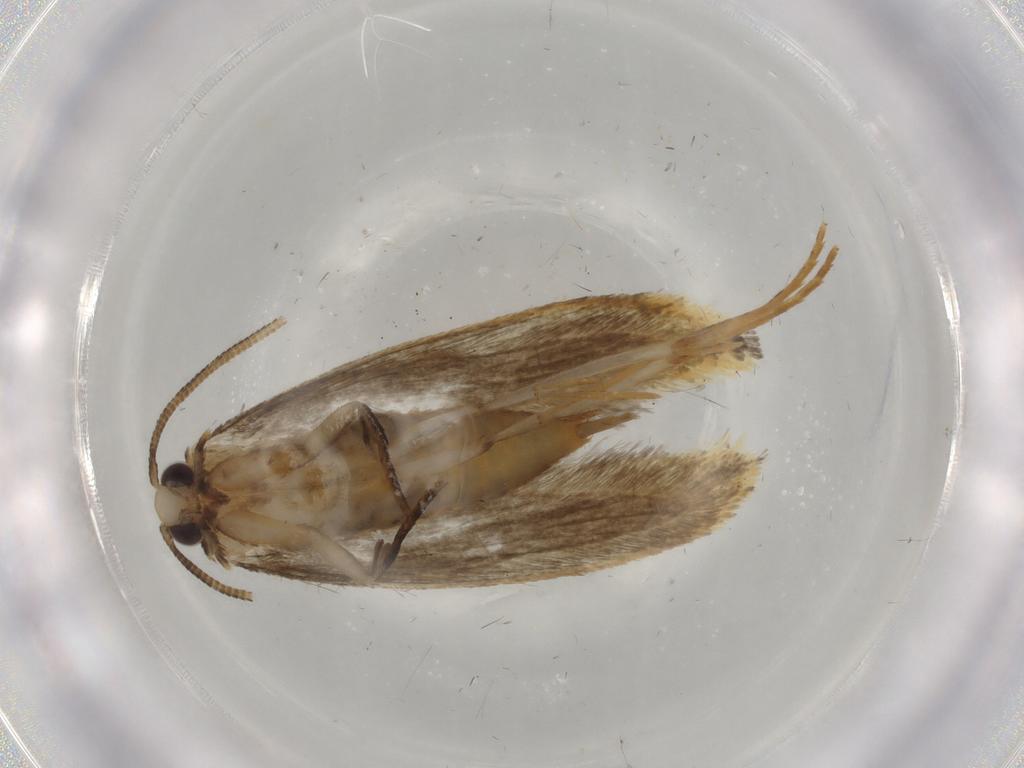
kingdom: Animalia
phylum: Arthropoda
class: Insecta
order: Lepidoptera
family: Tineidae
